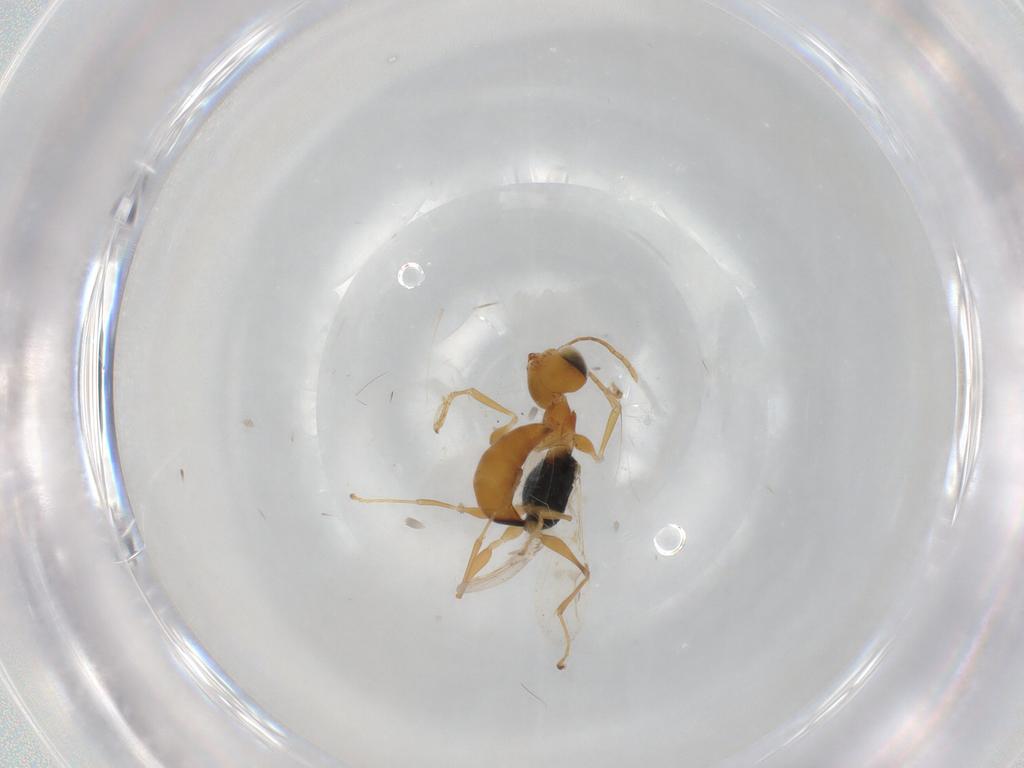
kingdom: Animalia
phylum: Arthropoda
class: Insecta
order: Hymenoptera
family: Dryinidae
